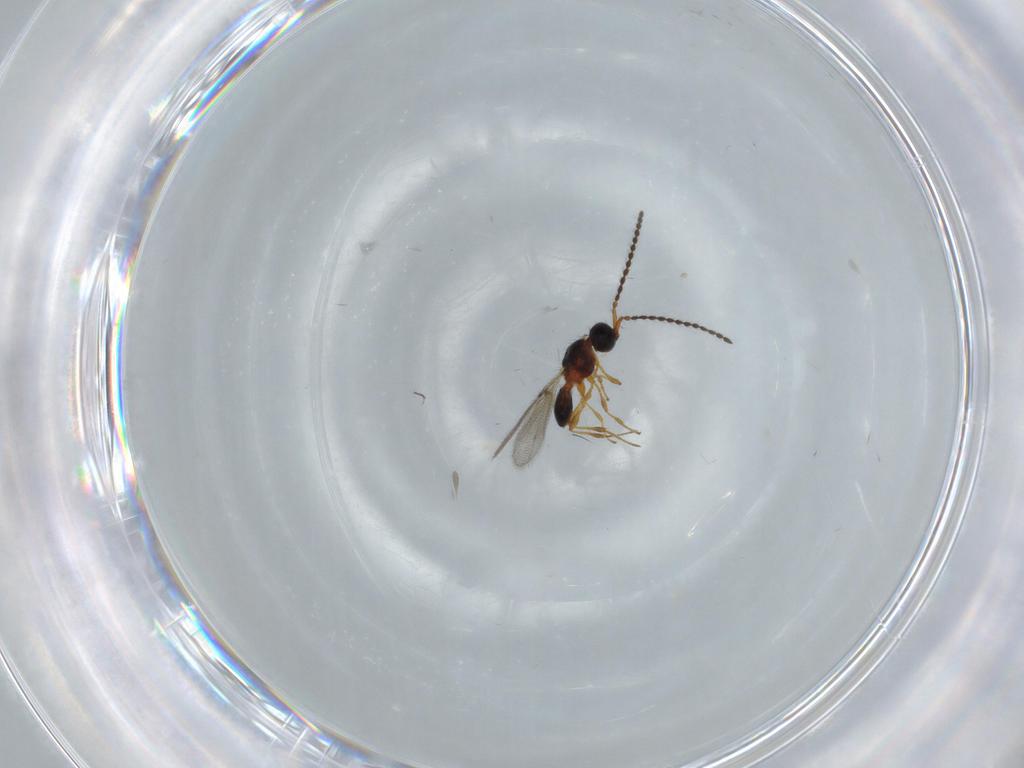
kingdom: Animalia
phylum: Arthropoda
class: Insecta
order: Hymenoptera
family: Diapriidae
